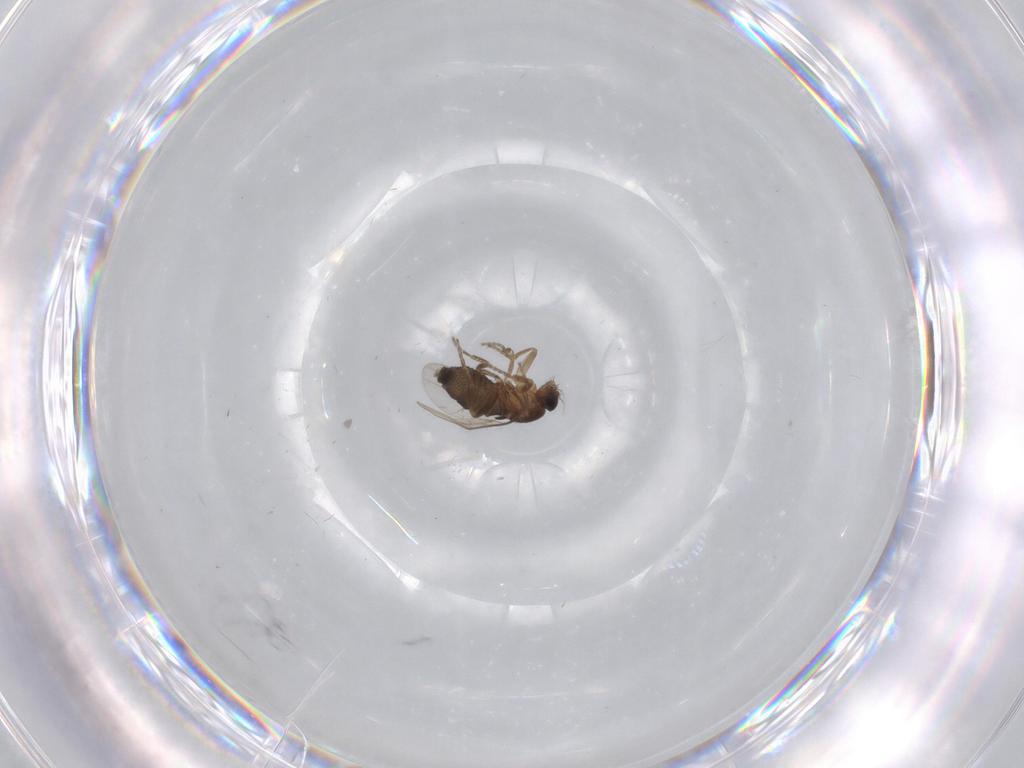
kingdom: Animalia
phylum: Arthropoda
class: Insecta
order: Diptera
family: Phoridae
